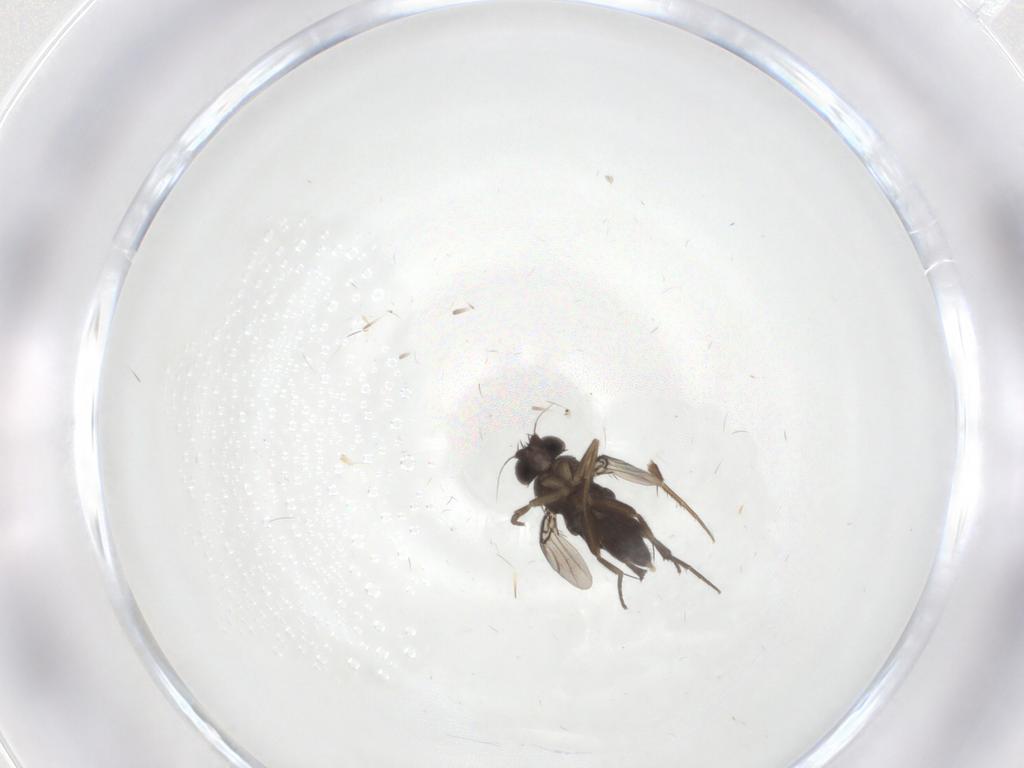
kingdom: Animalia
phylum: Arthropoda
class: Insecta
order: Diptera
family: Phoridae
